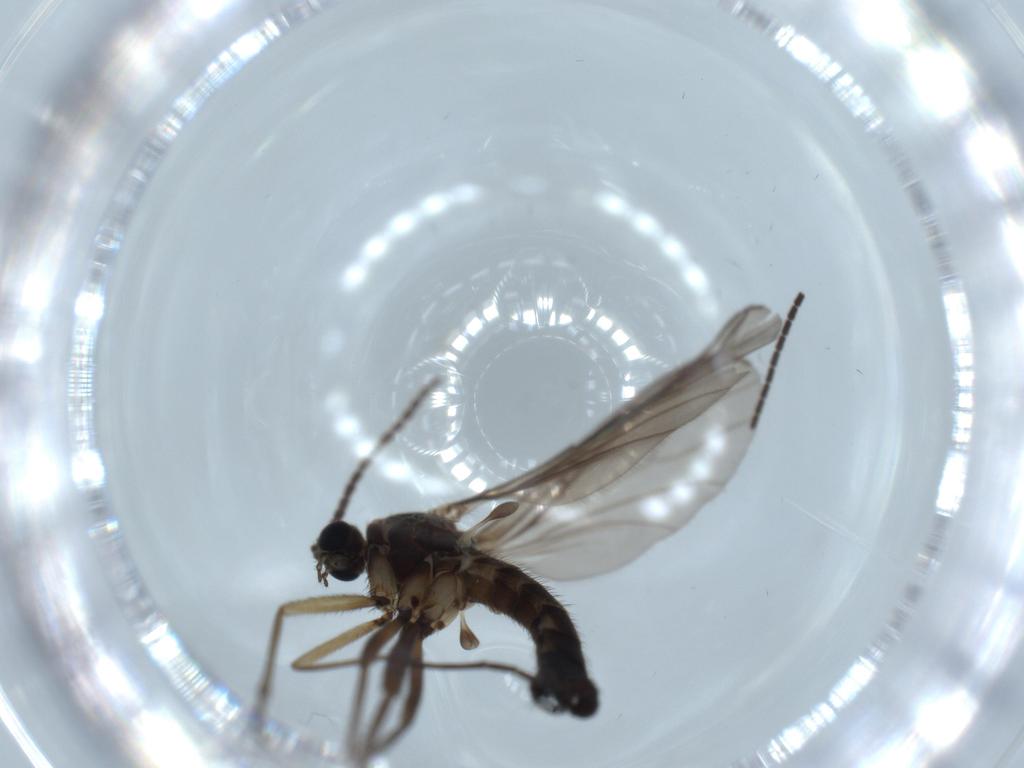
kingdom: Animalia
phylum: Arthropoda
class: Insecta
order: Diptera
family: Sciaridae
